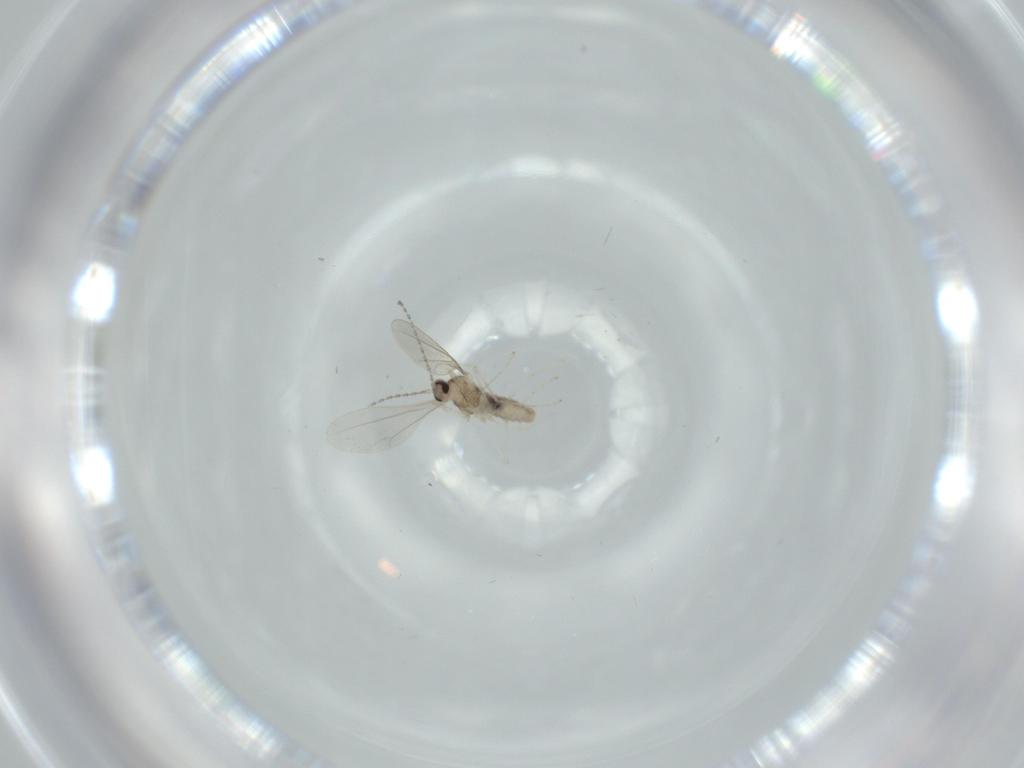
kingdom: Animalia
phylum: Arthropoda
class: Insecta
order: Diptera
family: Cecidomyiidae
